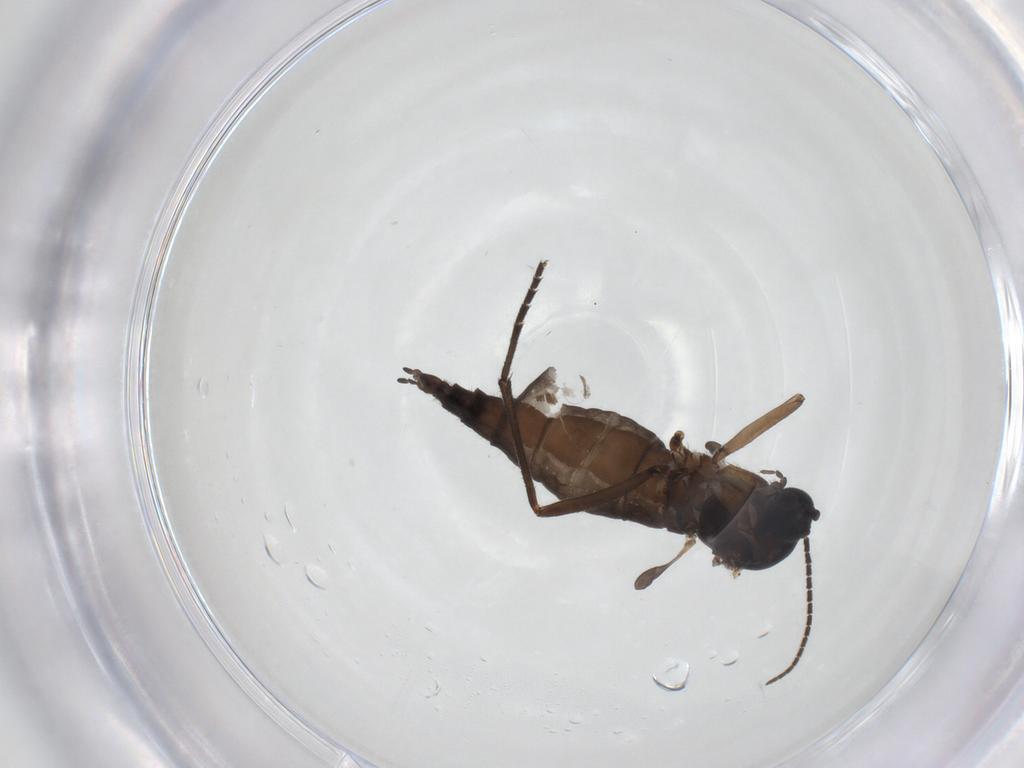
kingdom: Animalia
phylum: Arthropoda
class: Insecta
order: Diptera
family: Sciaridae
